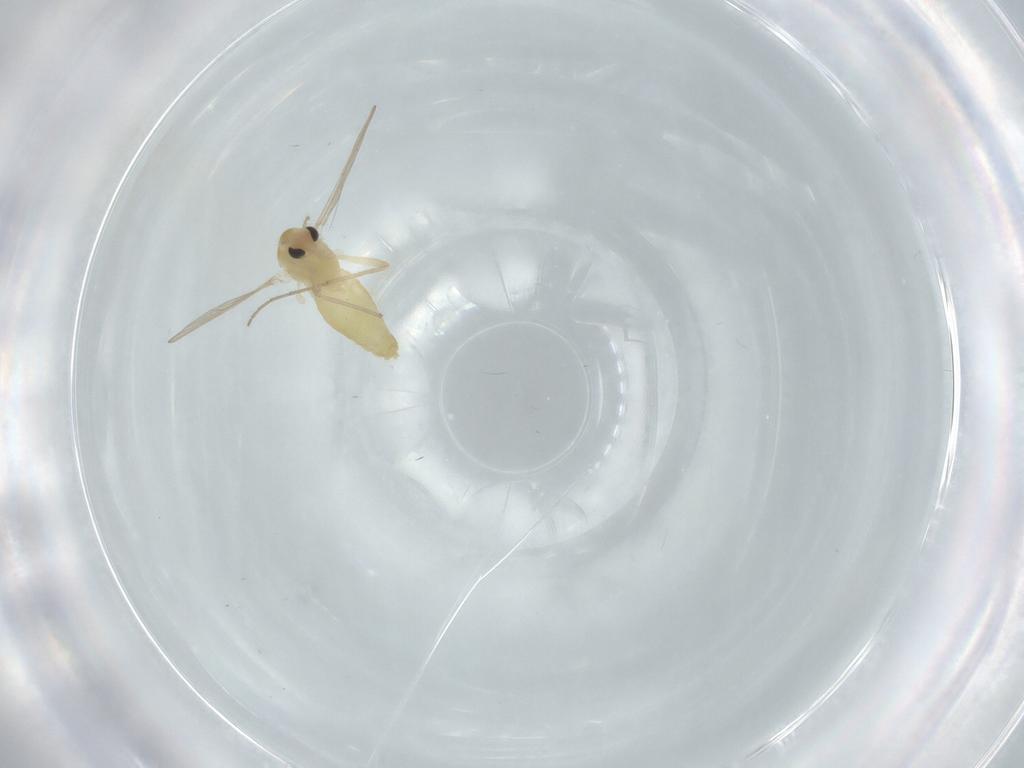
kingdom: Animalia
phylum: Arthropoda
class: Insecta
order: Diptera
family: Chironomidae
